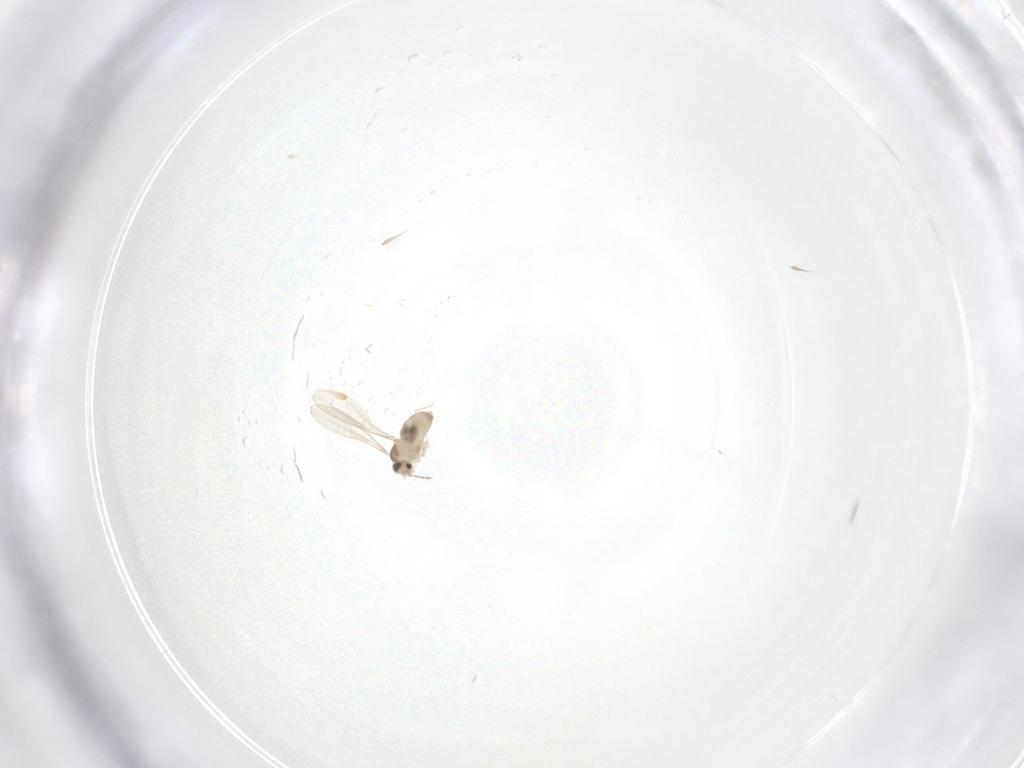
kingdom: Animalia
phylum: Arthropoda
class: Insecta
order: Diptera
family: Cecidomyiidae
